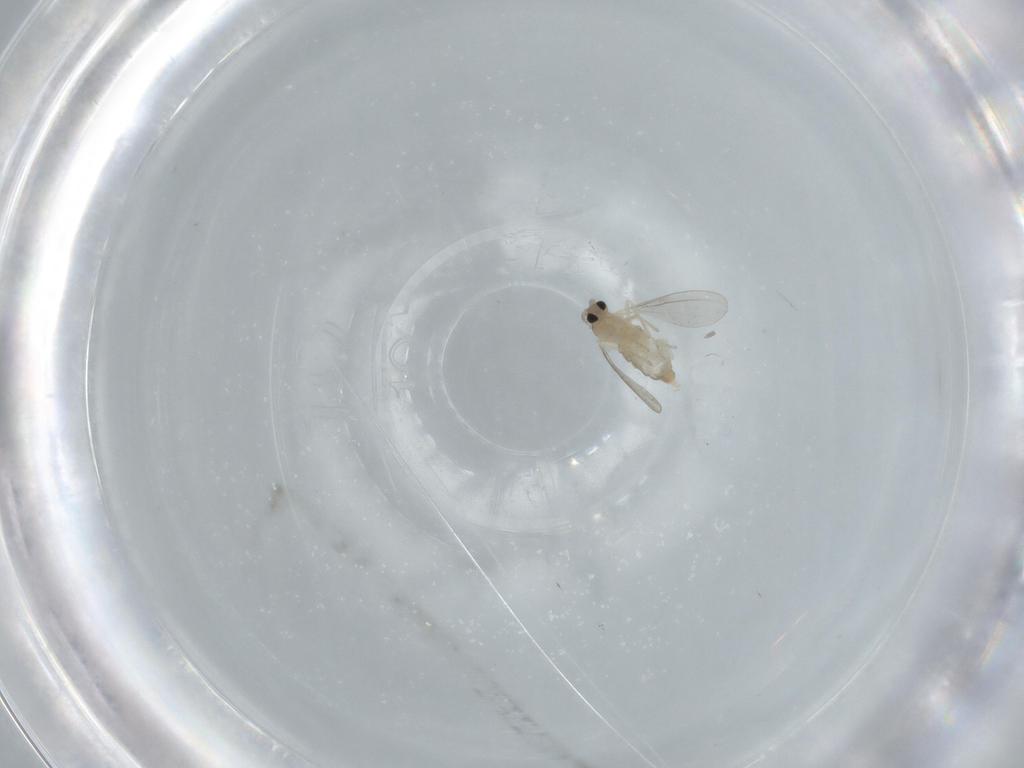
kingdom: Animalia
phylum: Arthropoda
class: Insecta
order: Diptera
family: Cecidomyiidae
